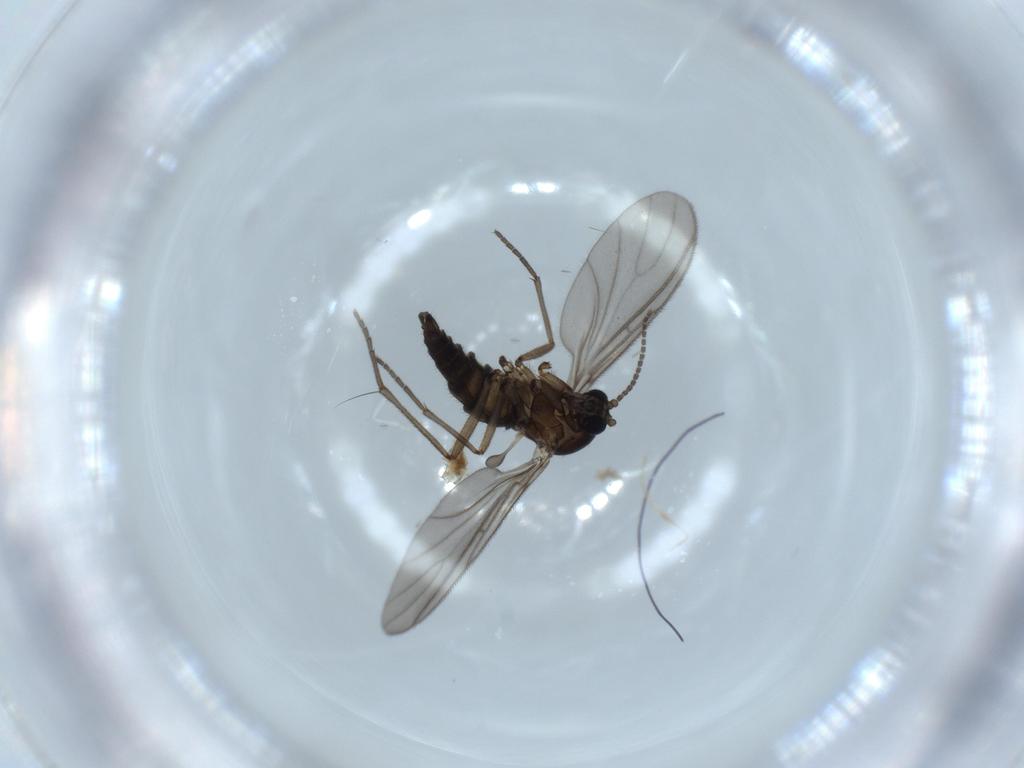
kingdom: Animalia
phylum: Arthropoda
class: Insecta
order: Diptera
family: Sciaridae
